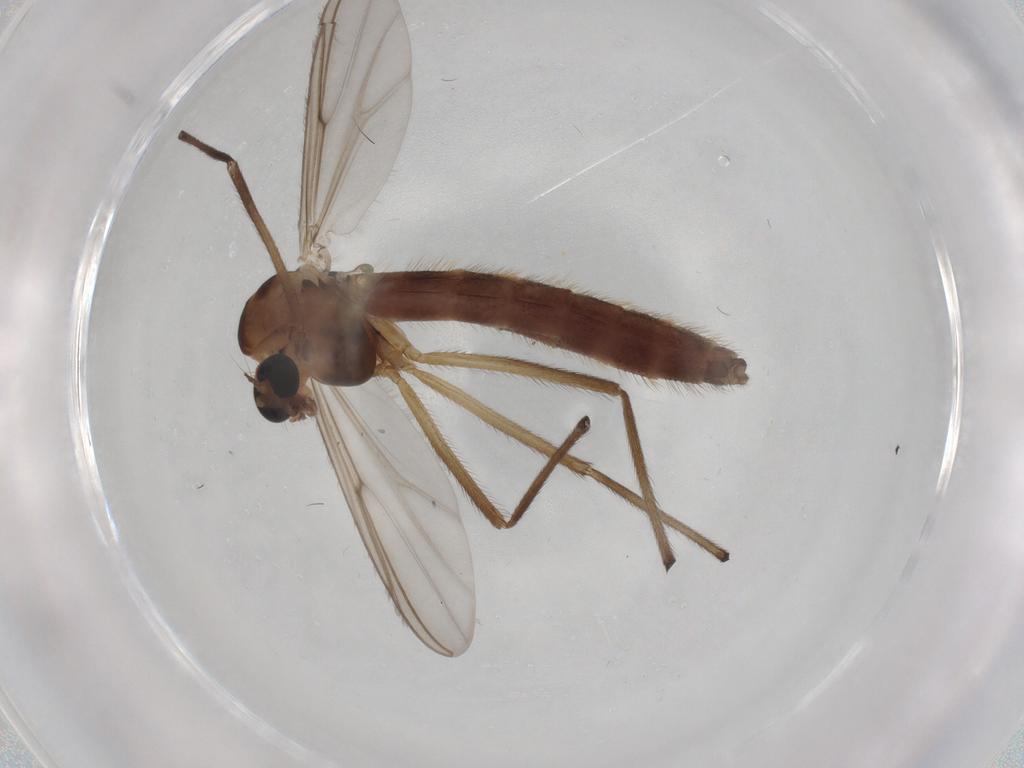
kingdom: Animalia
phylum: Arthropoda
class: Insecta
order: Diptera
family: Chironomidae
